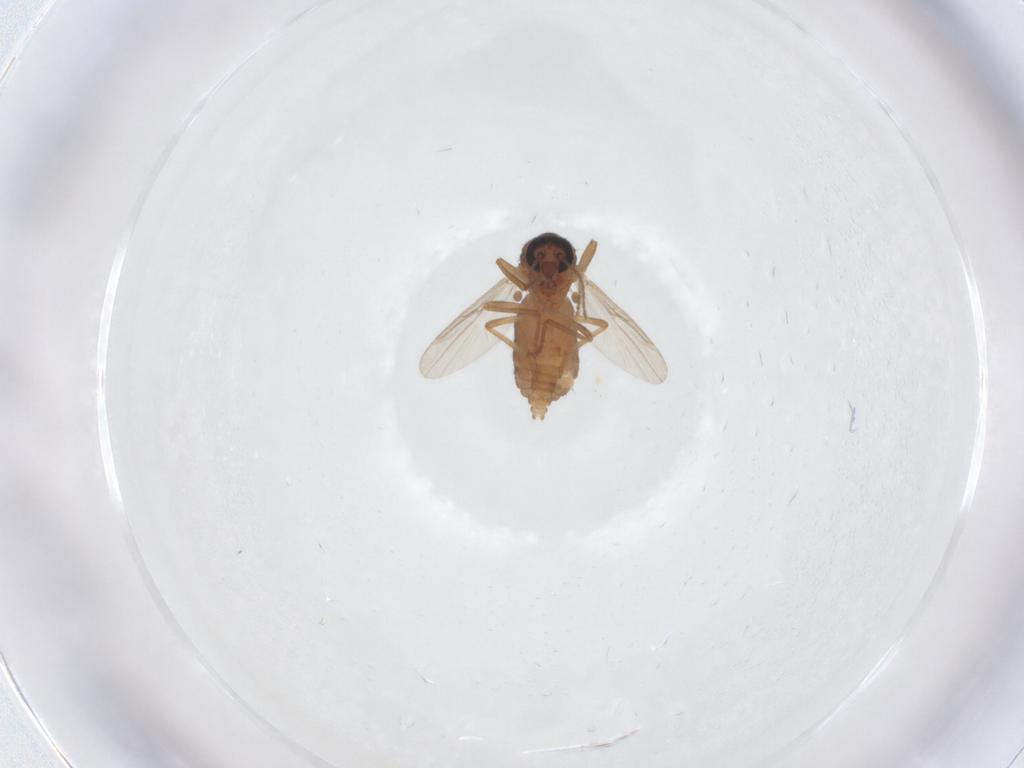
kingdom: Animalia
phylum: Arthropoda
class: Insecta
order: Diptera
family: Ceratopogonidae
